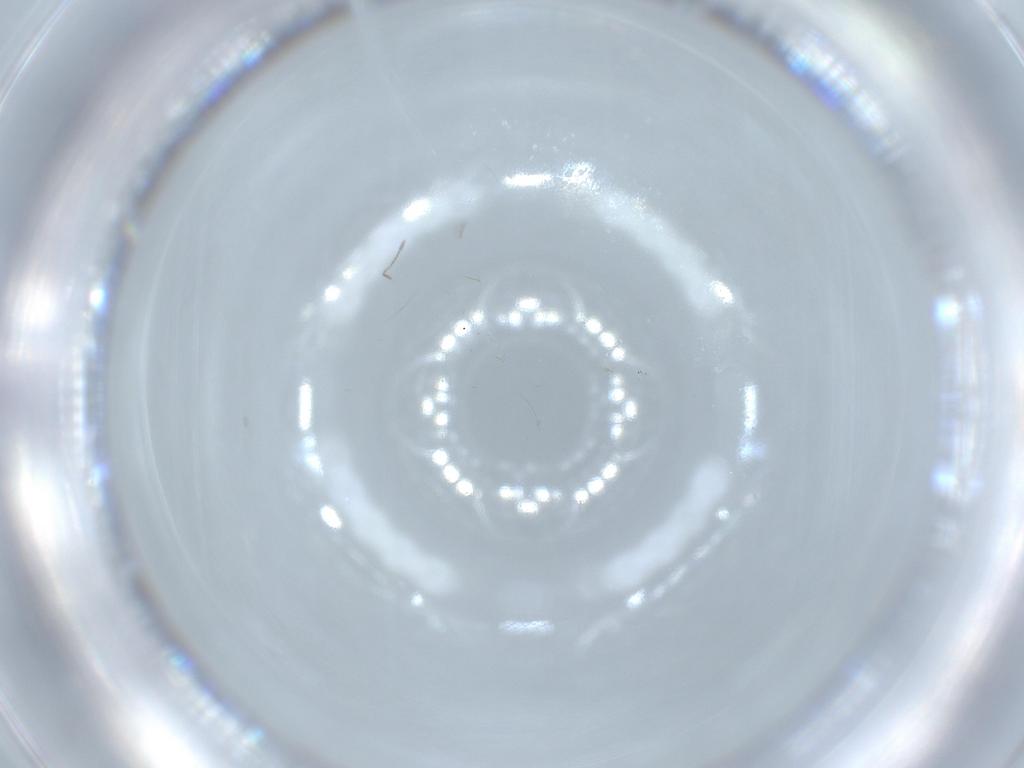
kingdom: Animalia
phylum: Arthropoda
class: Insecta
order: Hymenoptera
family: Mymaridae
